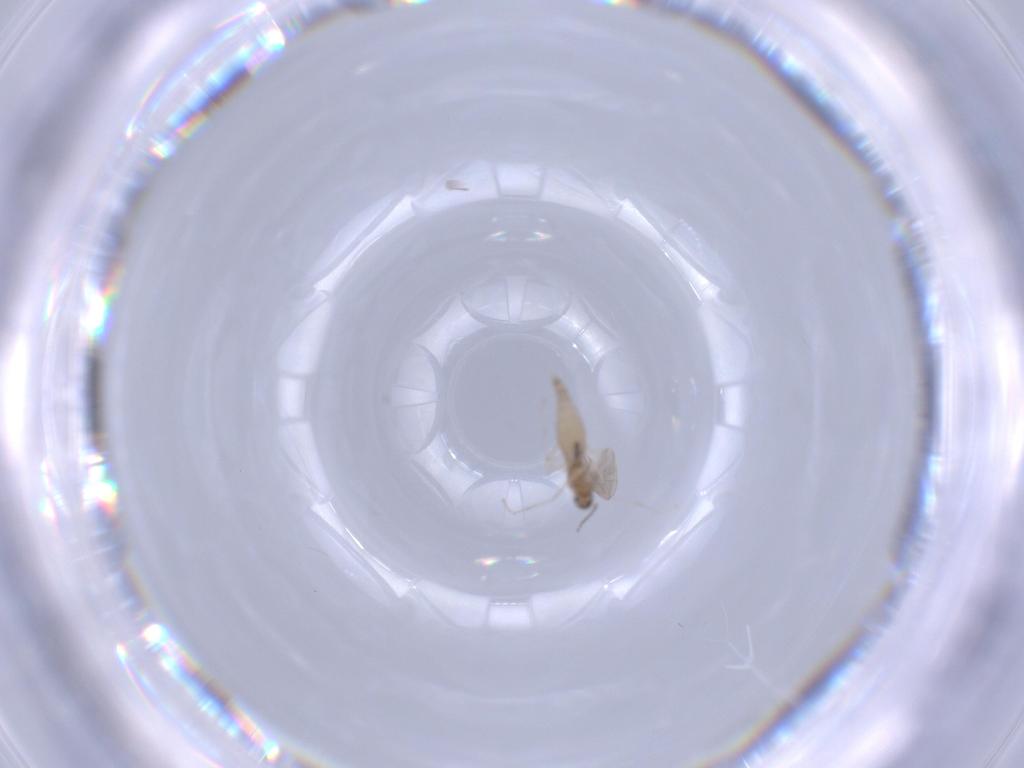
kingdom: Animalia
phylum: Arthropoda
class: Insecta
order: Diptera
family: Cecidomyiidae
